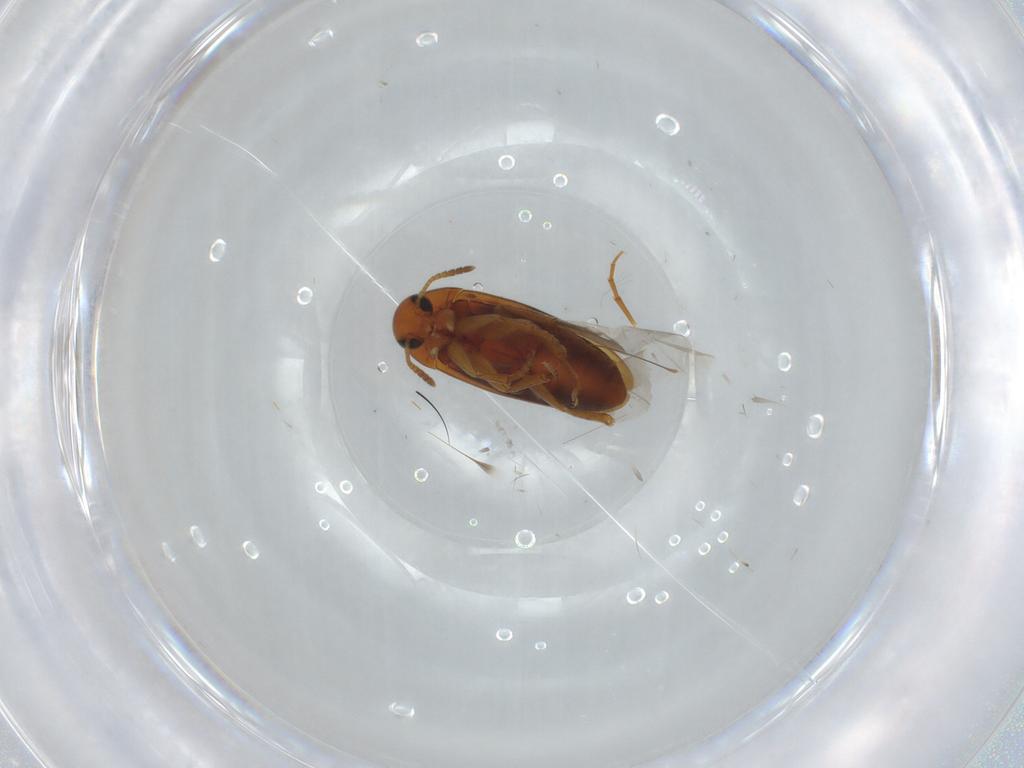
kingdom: Animalia
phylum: Arthropoda
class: Insecta
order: Coleoptera
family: Scraptiidae
